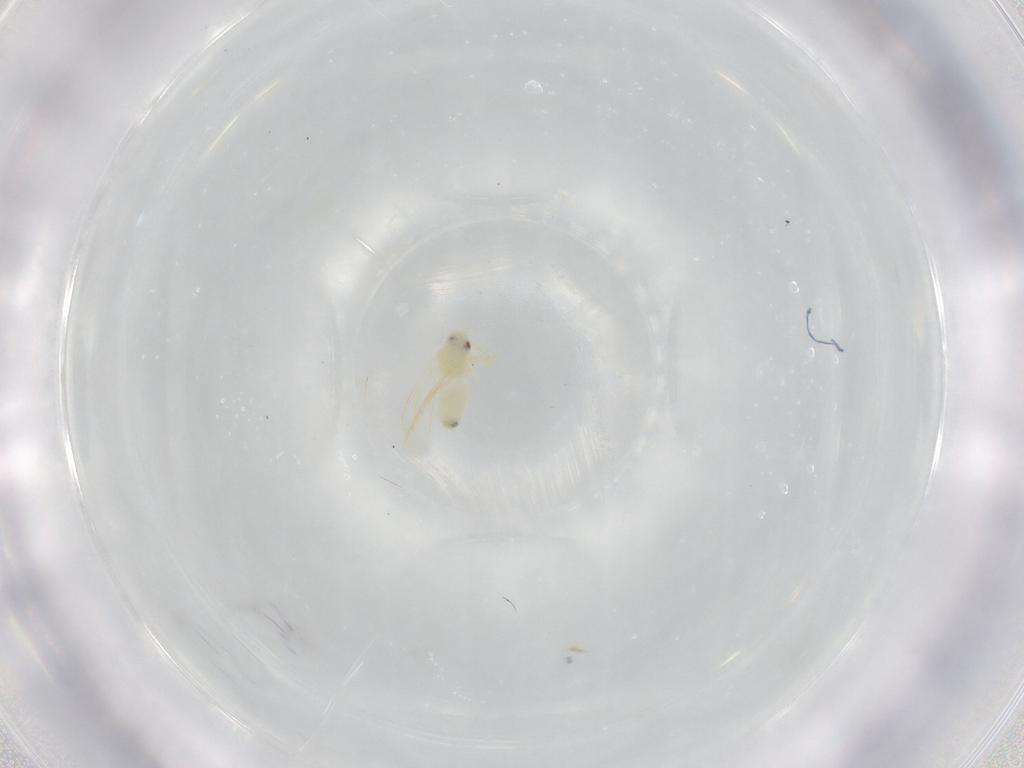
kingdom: Animalia
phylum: Arthropoda
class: Insecta
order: Hemiptera
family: Aleyrodidae
